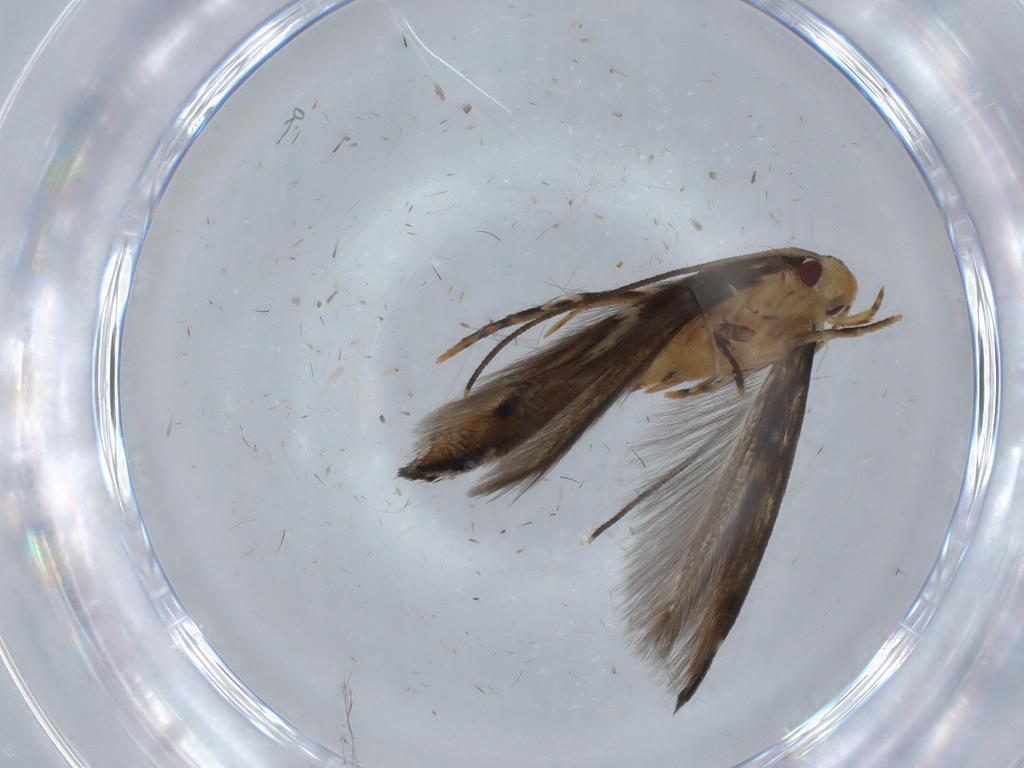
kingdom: Animalia
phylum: Arthropoda
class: Insecta
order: Lepidoptera
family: Momphidae
